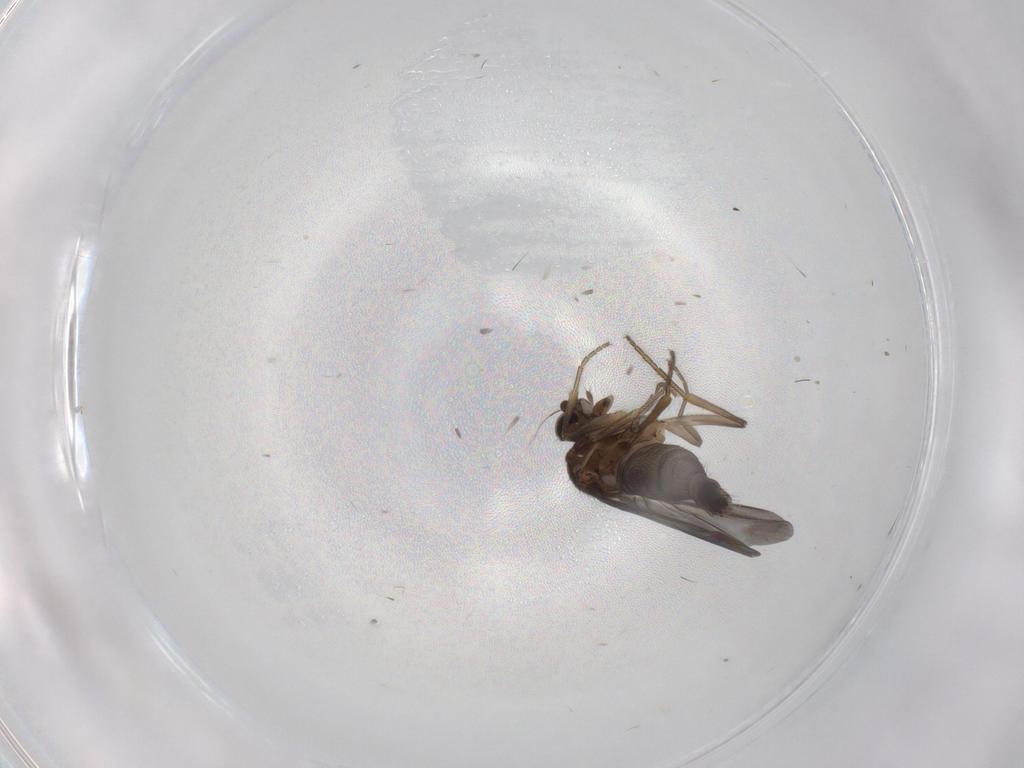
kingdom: Animalia
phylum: Arthropoda
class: Insecta
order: Diptera
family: Phoridae
